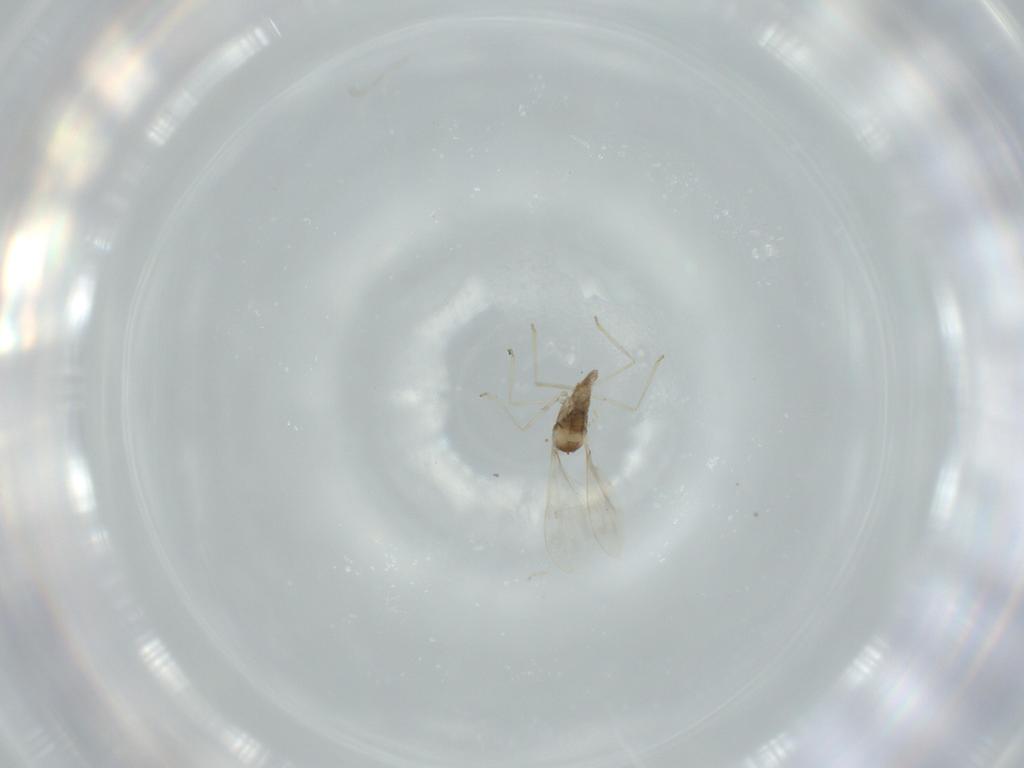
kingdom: Animalia
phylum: Arthropoda
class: Insecta
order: Diptera
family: Cecidomyiidae
